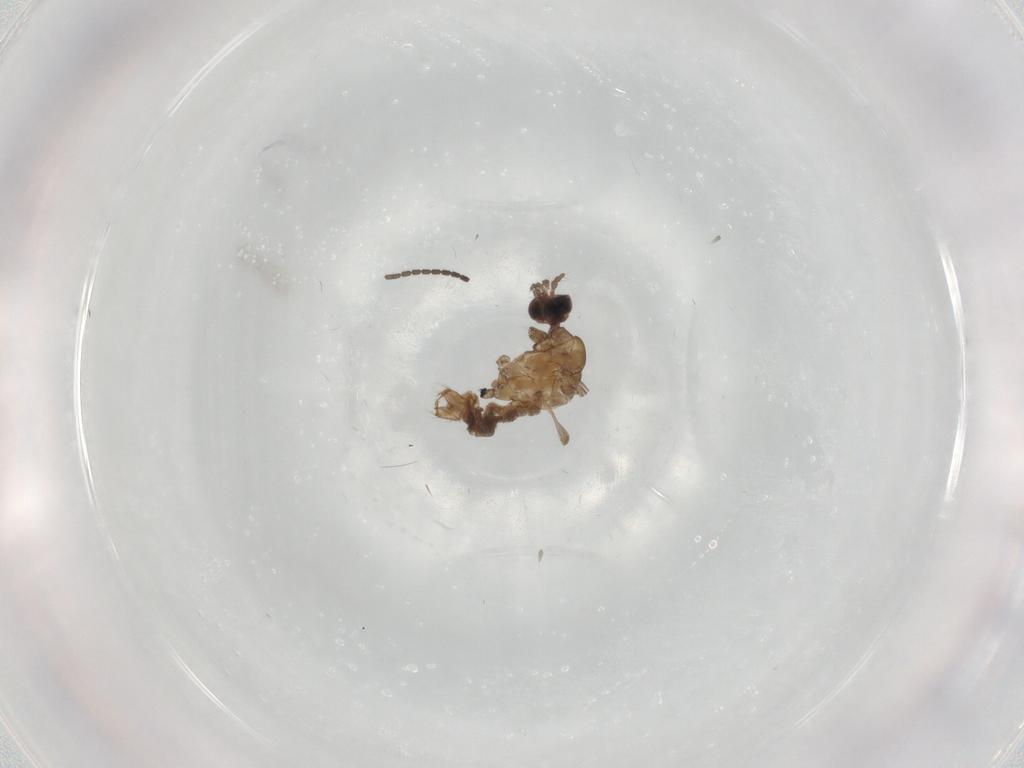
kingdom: Animalia
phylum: Arthropoda
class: Insecta
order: Diptera
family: Limoniidae
